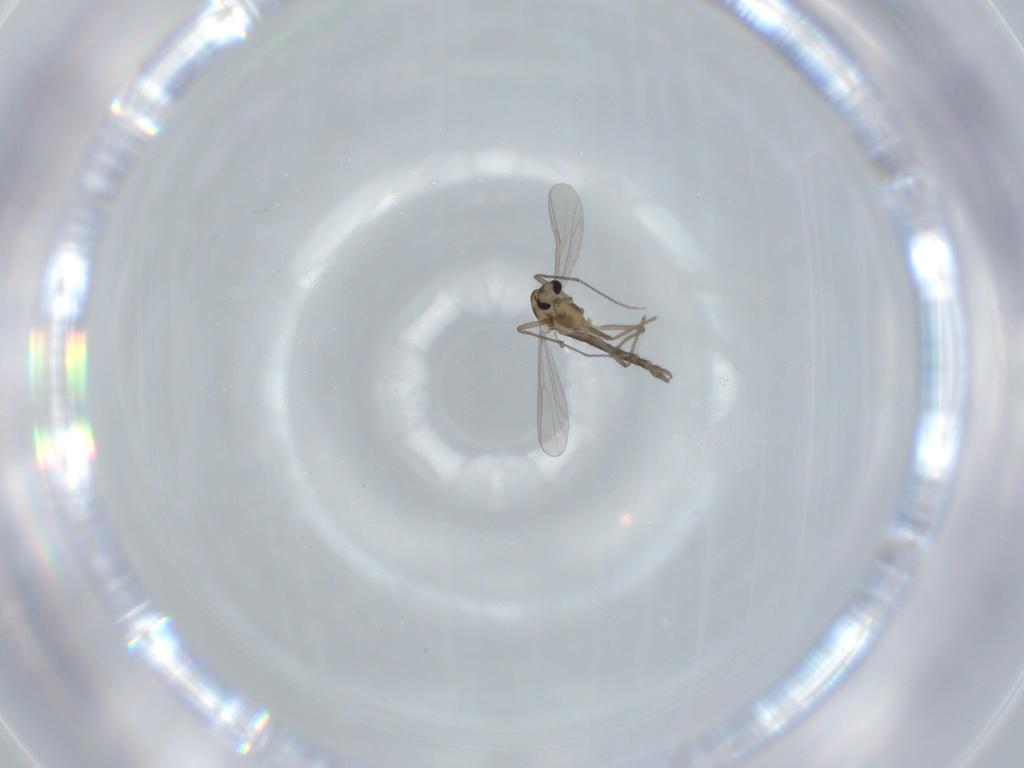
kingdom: Animalia
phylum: Arthropoda
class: Insecta
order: Diptera
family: Chironomidae
